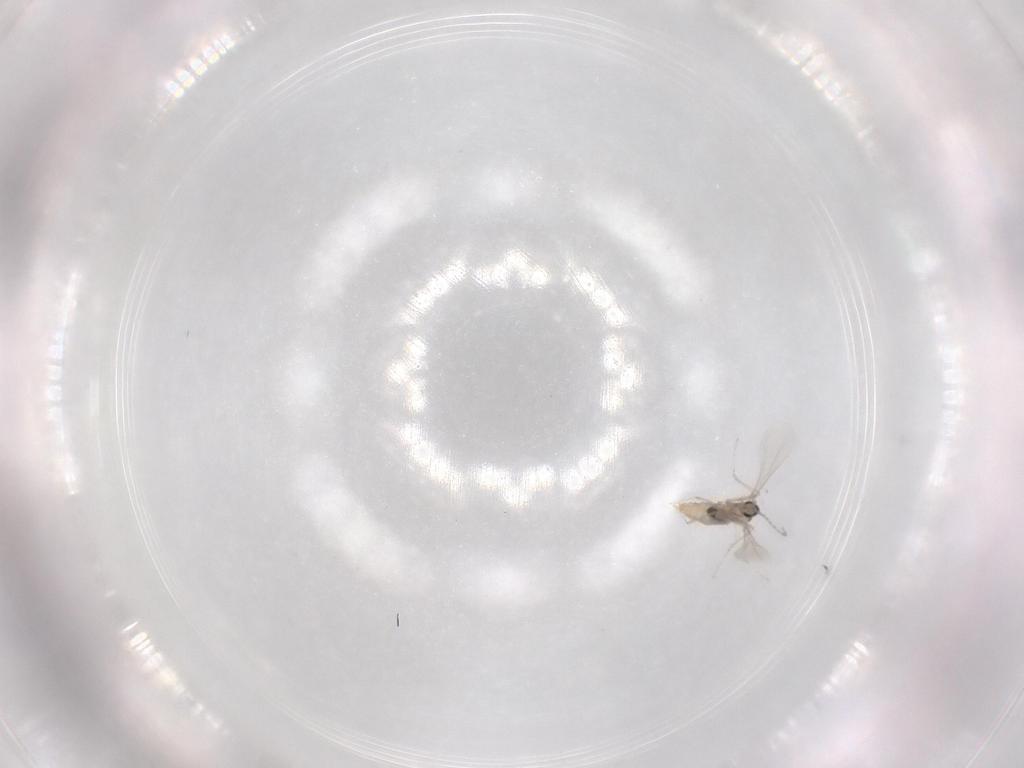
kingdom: Animalia
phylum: Arthropoda
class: Insecta
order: Diptera
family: Cecidomyiidae
